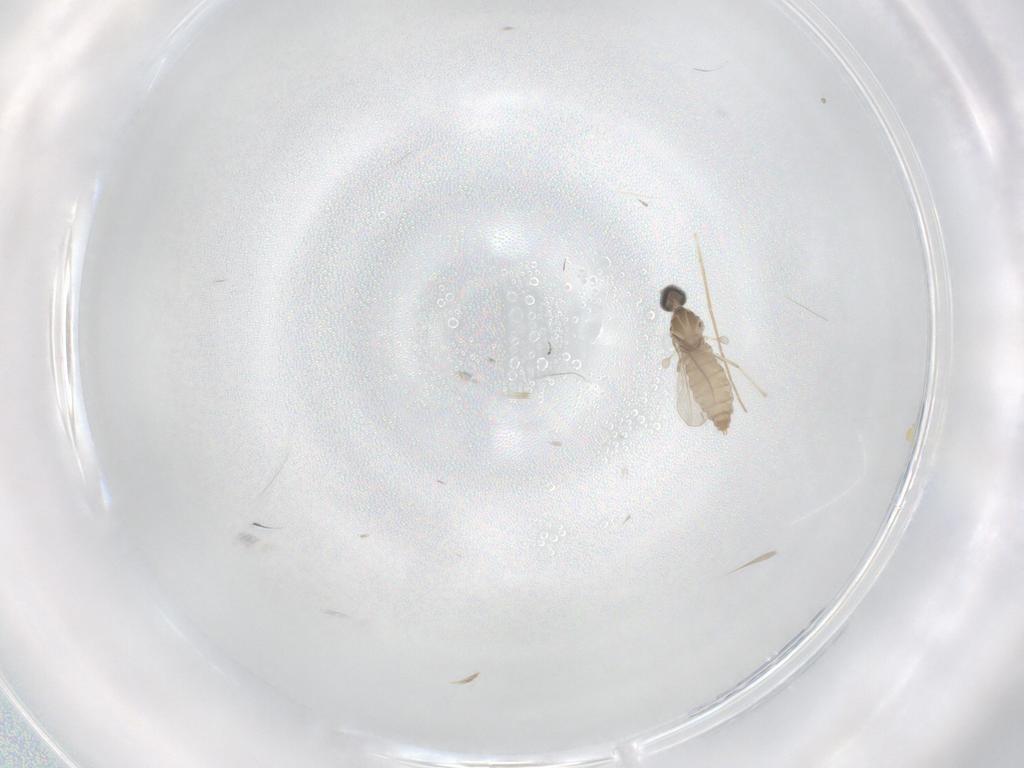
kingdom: Animalia
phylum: Arthropoda
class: Insecta
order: Diptera
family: Cecidomyiidae
